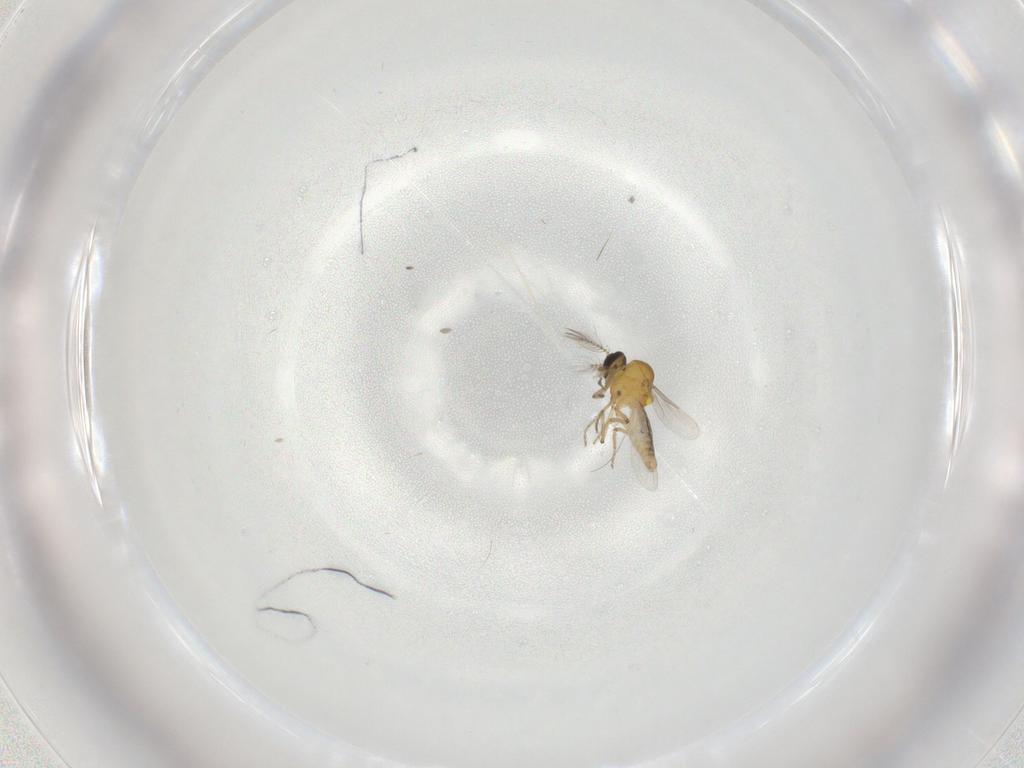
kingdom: Animalia
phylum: Arthropoda
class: Insecta
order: Diptera
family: Ceratopogonidae
